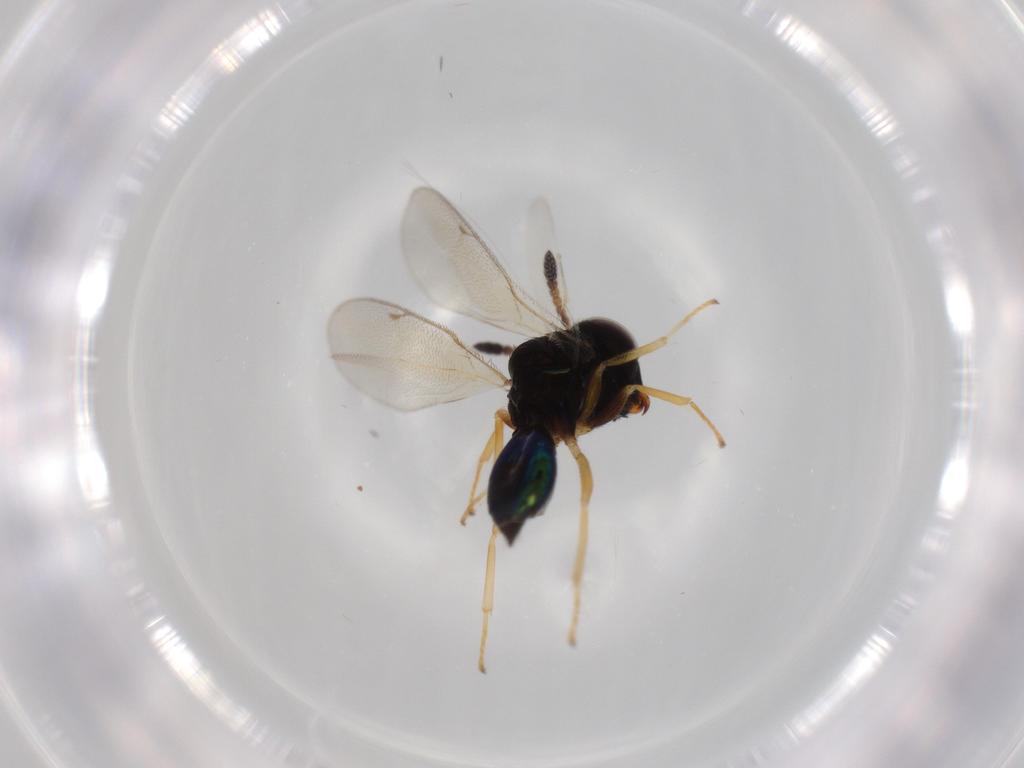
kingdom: Animalia
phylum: Arthropoda
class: Insecta
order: Hymenoptera
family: Pteromalidae
